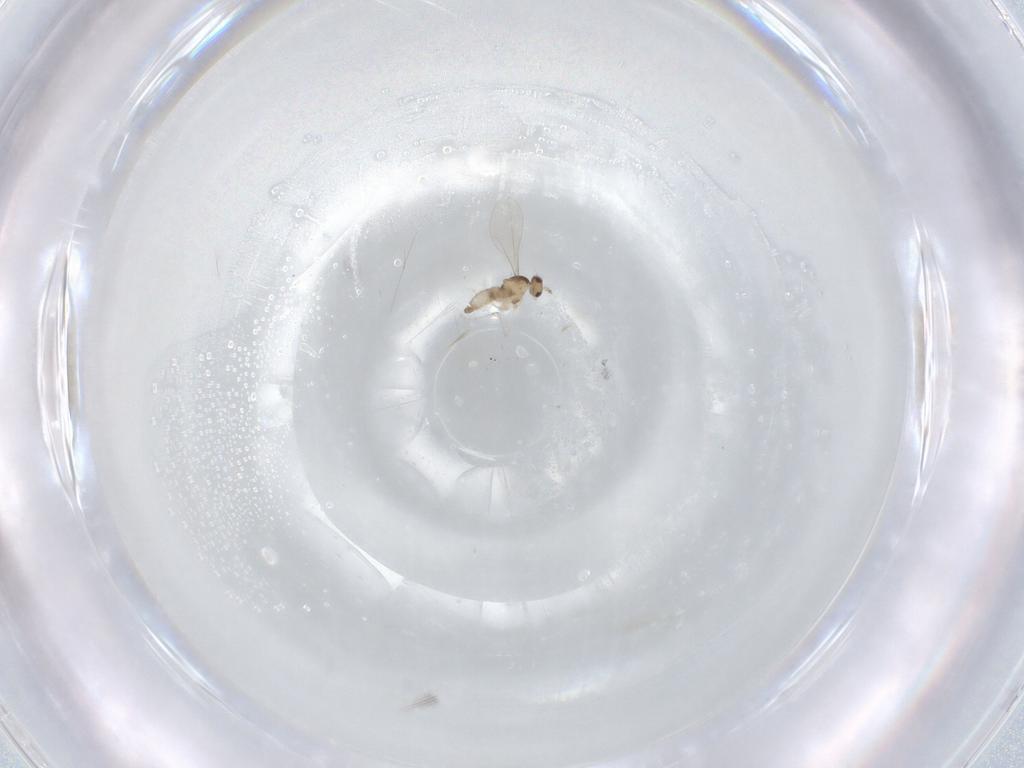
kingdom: Animalia
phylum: Arthropoda
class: Insecta
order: Diptera
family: Cecidomyiidae
